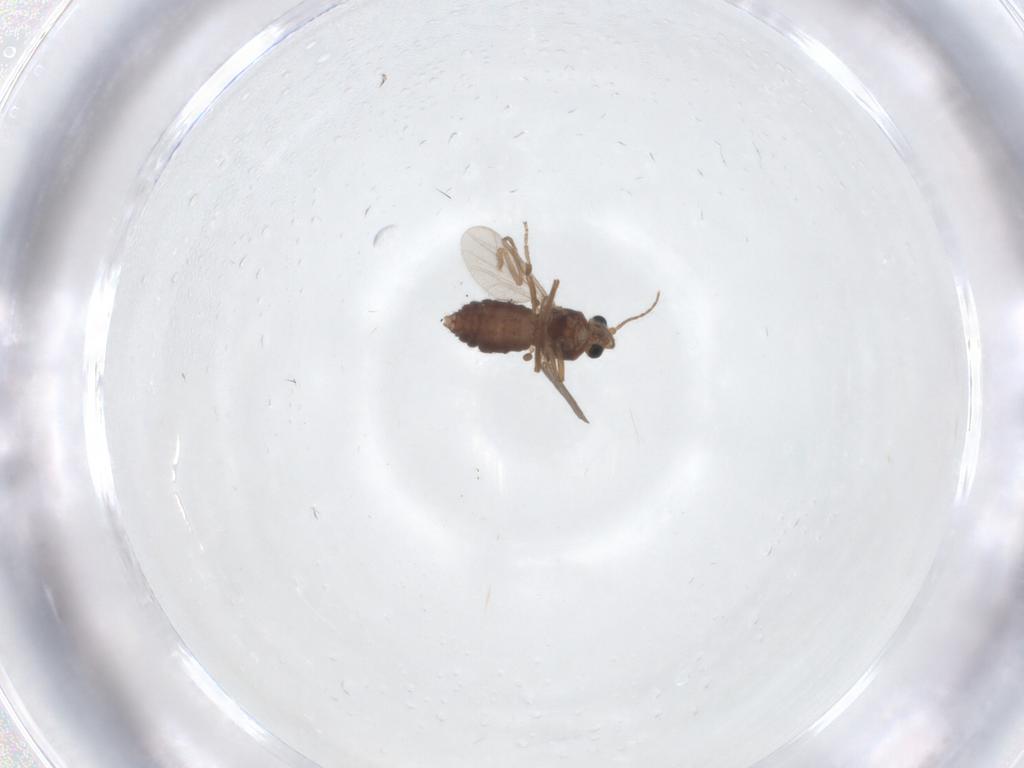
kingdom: Animalia
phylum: Arthropoda
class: Insecta
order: Diptera
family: Ceratopogonidae
